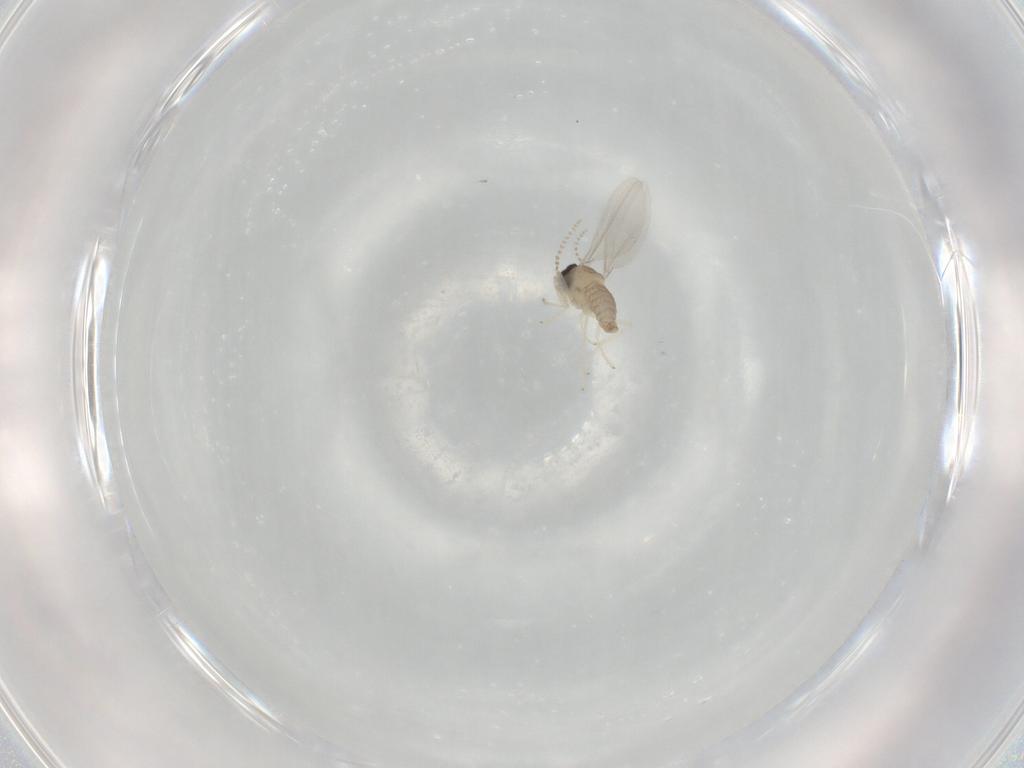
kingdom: Animalia
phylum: Arthropoda
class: Insecta
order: Diptera
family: Cecidomyiidae
